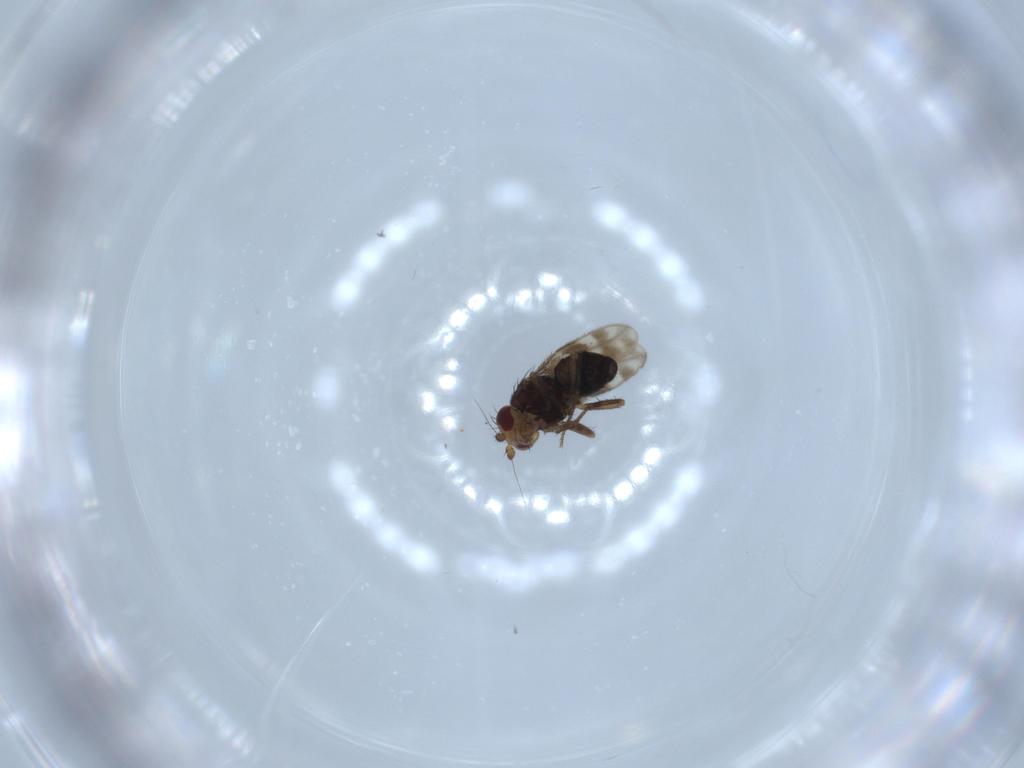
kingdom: Animalia
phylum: Arthropoda
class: Insecta
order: Diptera
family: Sphaeroceridae
